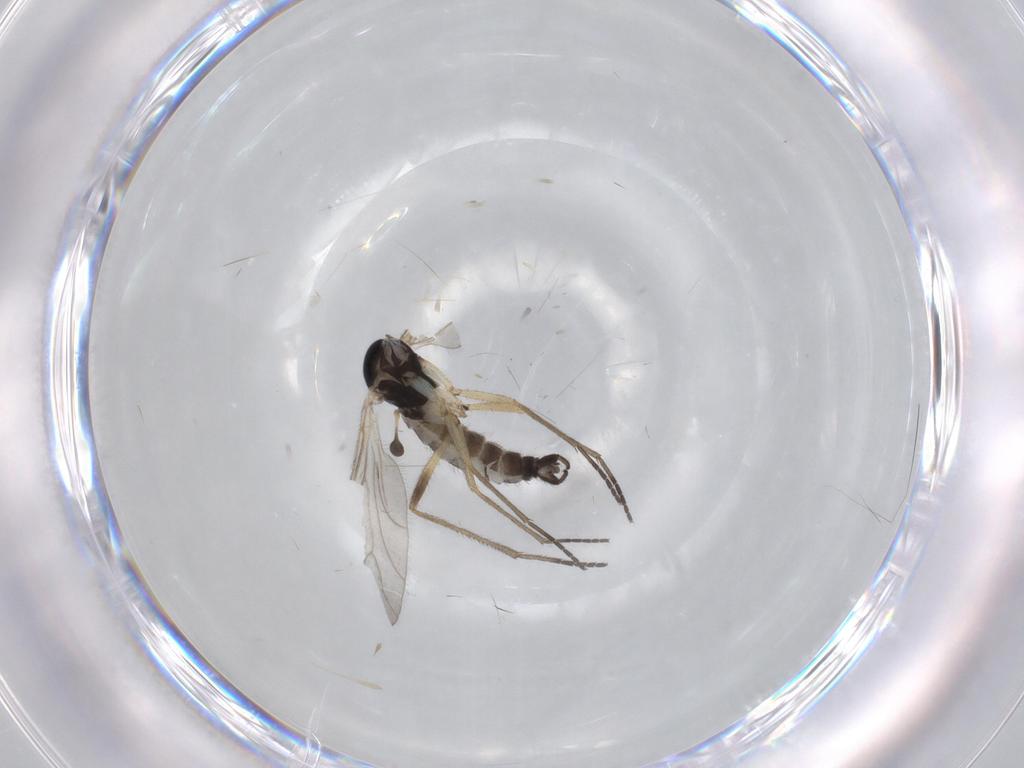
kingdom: Animalia
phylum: Arthropoda
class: Insecta
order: Diptera
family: Sciaridae
